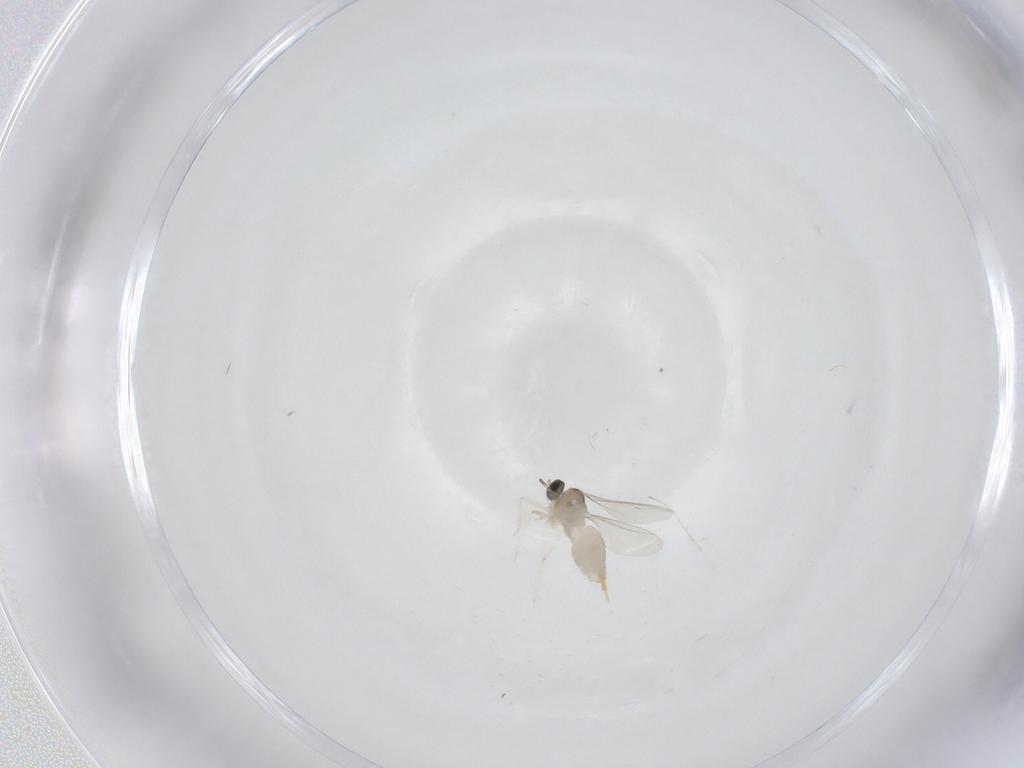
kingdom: Animalia
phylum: Arthropoda
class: Insecta
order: Diptera
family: Cecidomyiidae
